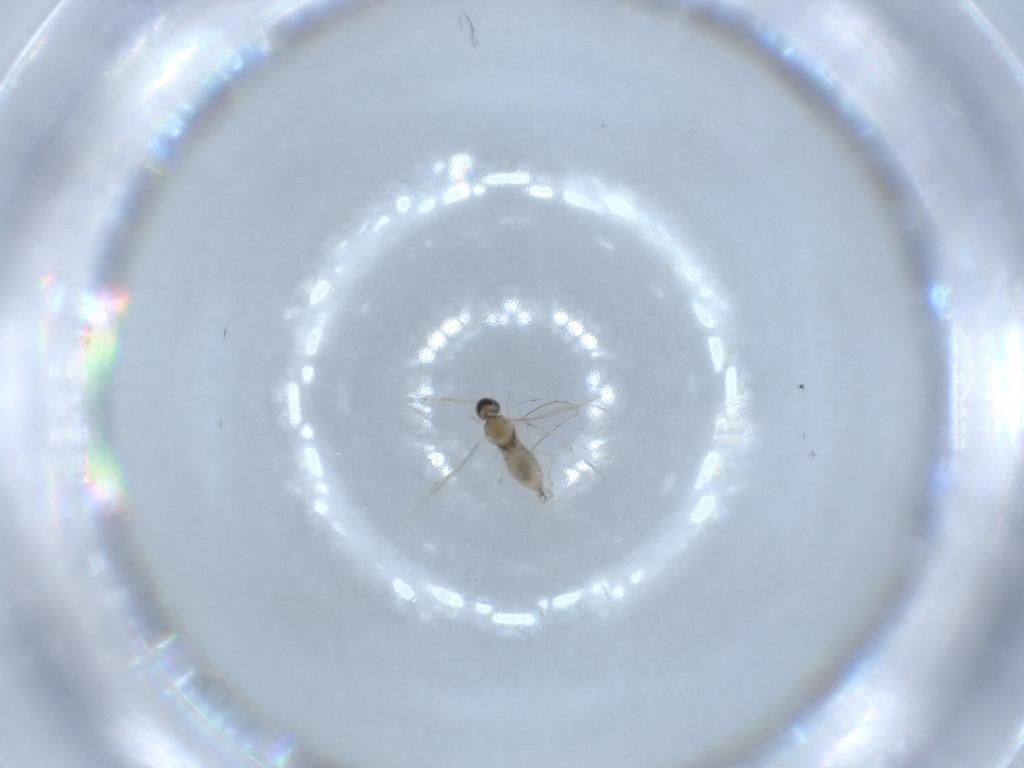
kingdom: Animalia
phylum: Arthropoda
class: Insecta
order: Diptera
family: Cecidomyiidae
